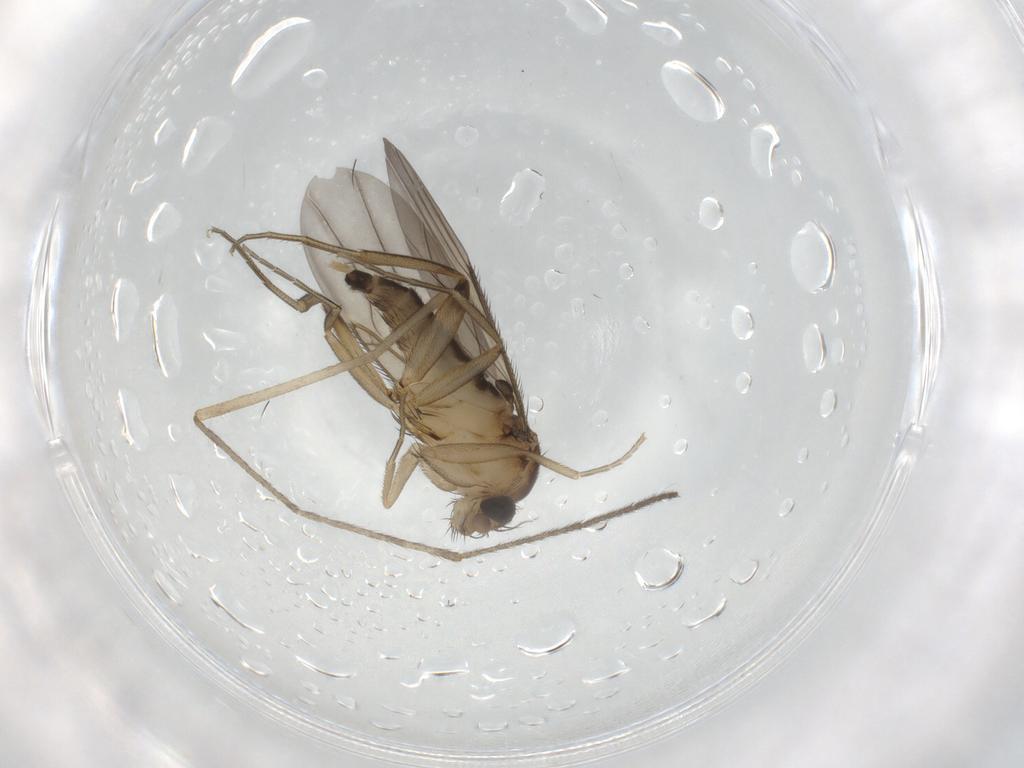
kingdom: Animalia
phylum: Arthropoda
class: Insecta
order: Diptera
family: Phoridae
